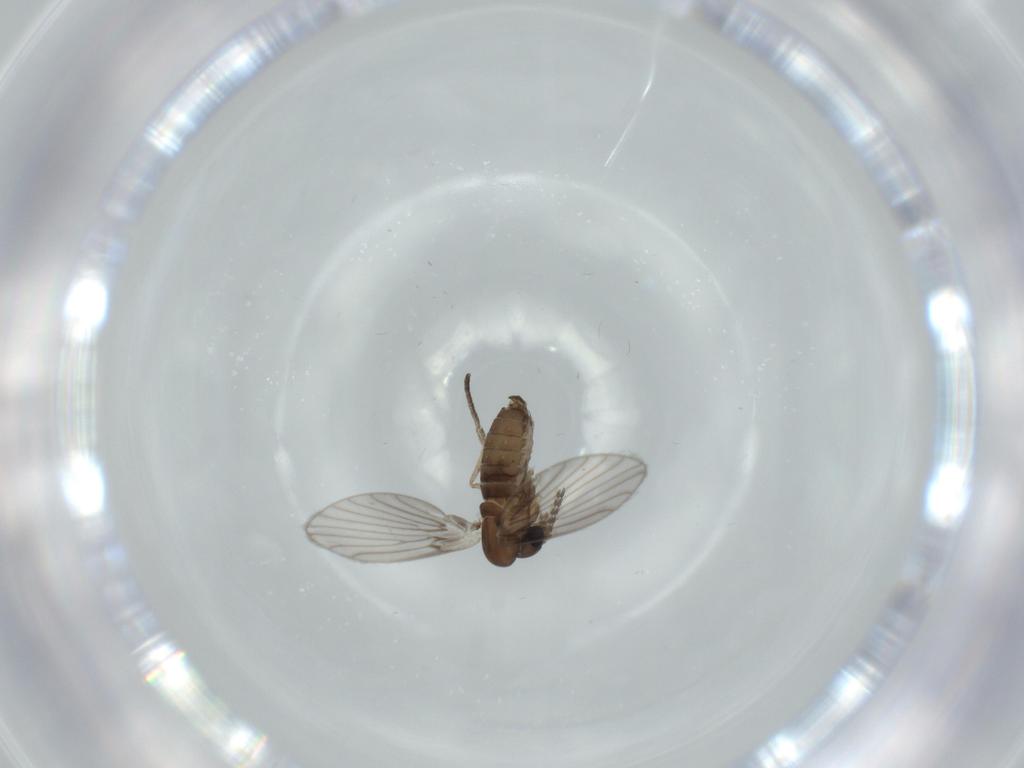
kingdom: Animalia
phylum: Arthropoda
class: Insecta
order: Diptera
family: Psychodidae
